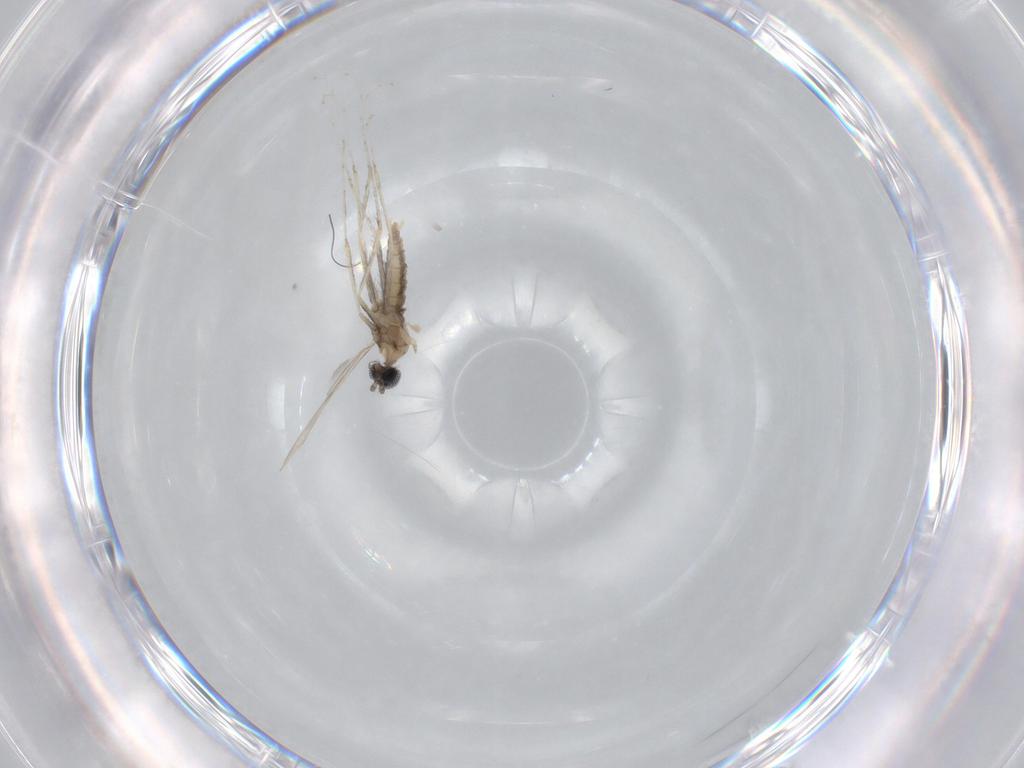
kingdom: Animalia
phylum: Arthropoda
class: Insecta
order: Diptera
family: Cecidomyiidae
